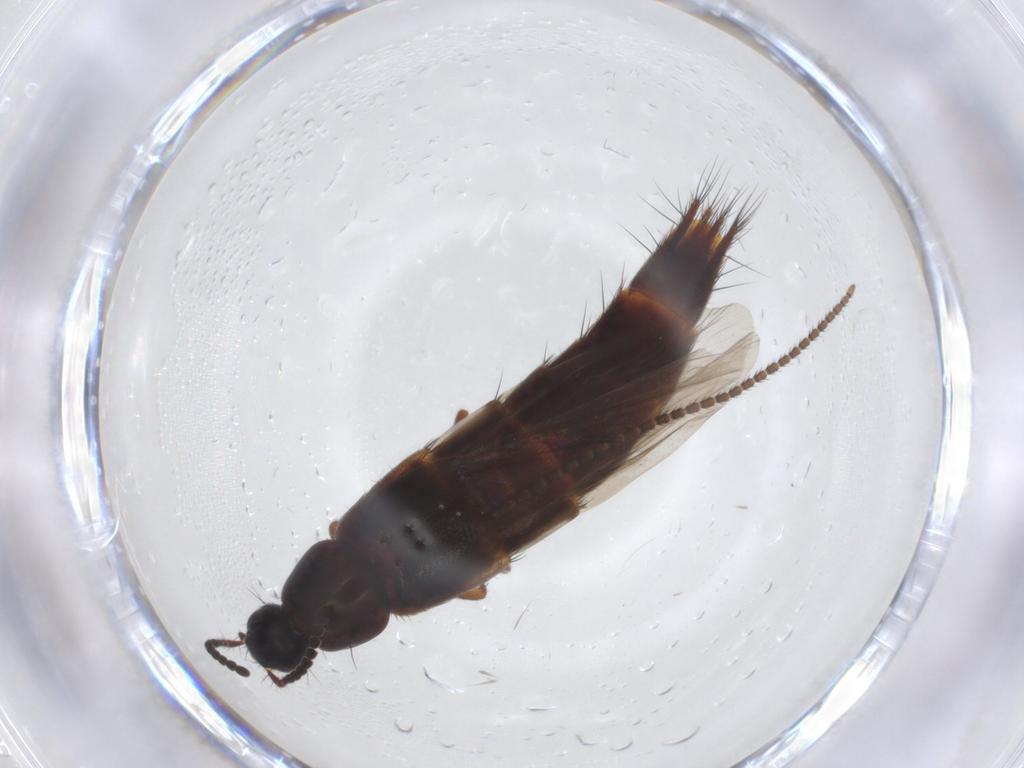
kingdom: Animalia
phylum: Arthropoda
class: Insecta
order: Coleoptera
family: Staphylinidae
